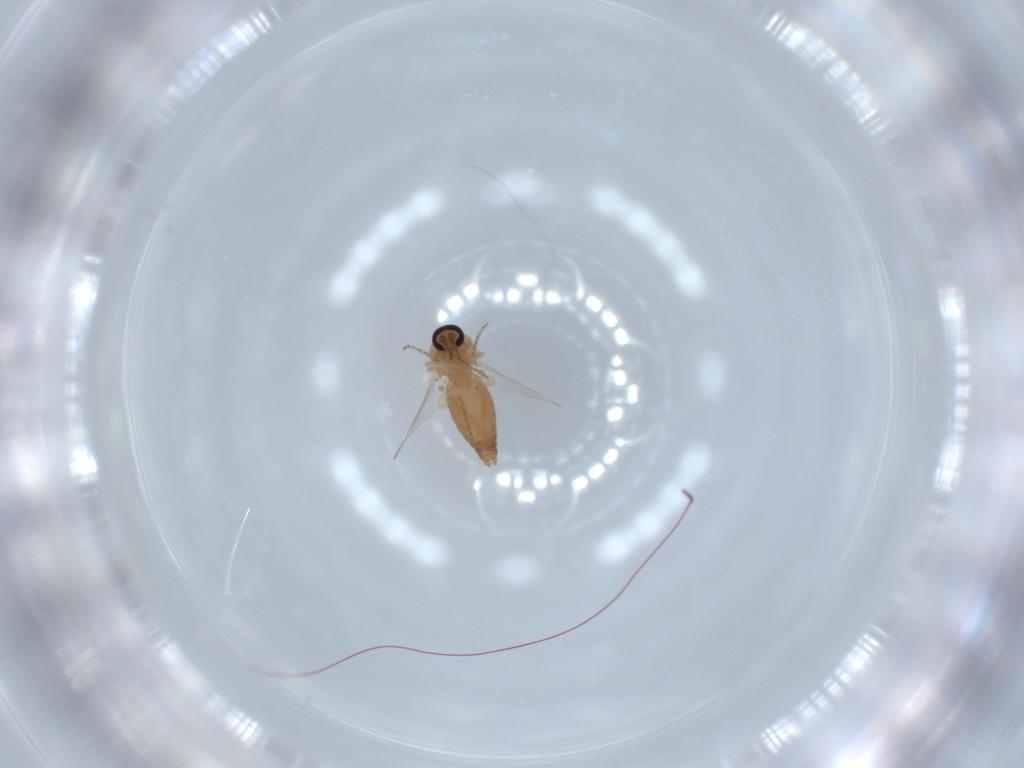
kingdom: Animalia
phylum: Arthropoda
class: Insecta
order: Diptera
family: Ceratopogonidae
